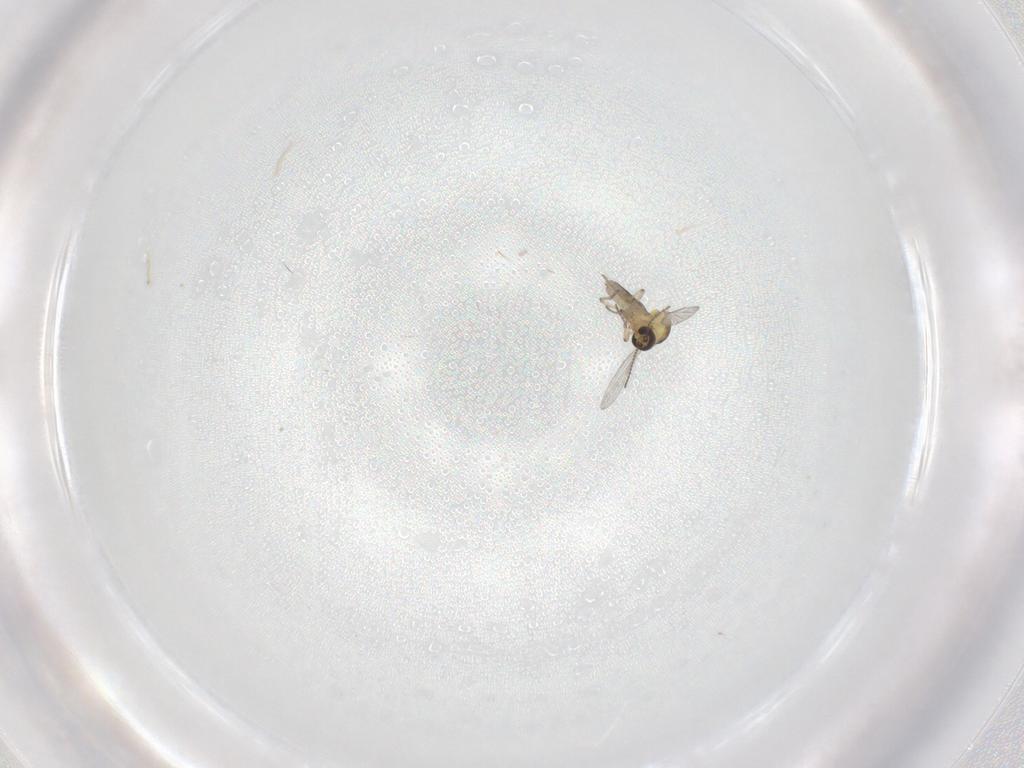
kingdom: Animalia
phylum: Arthropoda
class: Insecta
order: Diptera
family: Ceratopogonidae
